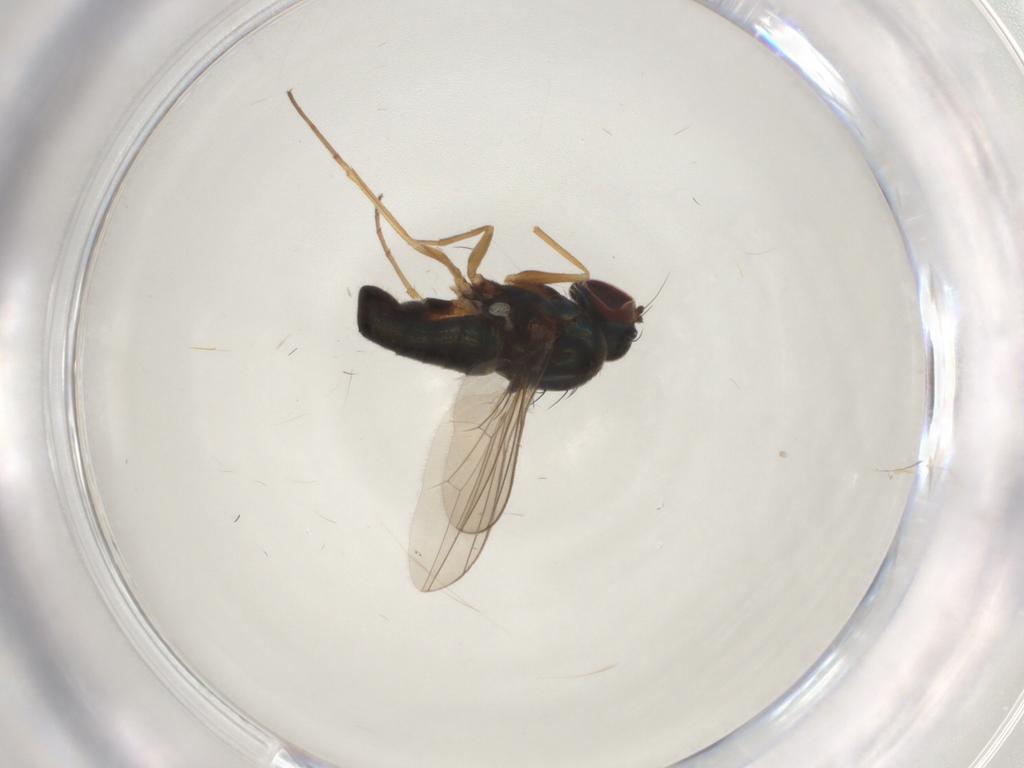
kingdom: Animalia
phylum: Arthropoda
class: Insecta
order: Diptera
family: Dolichopodidae
